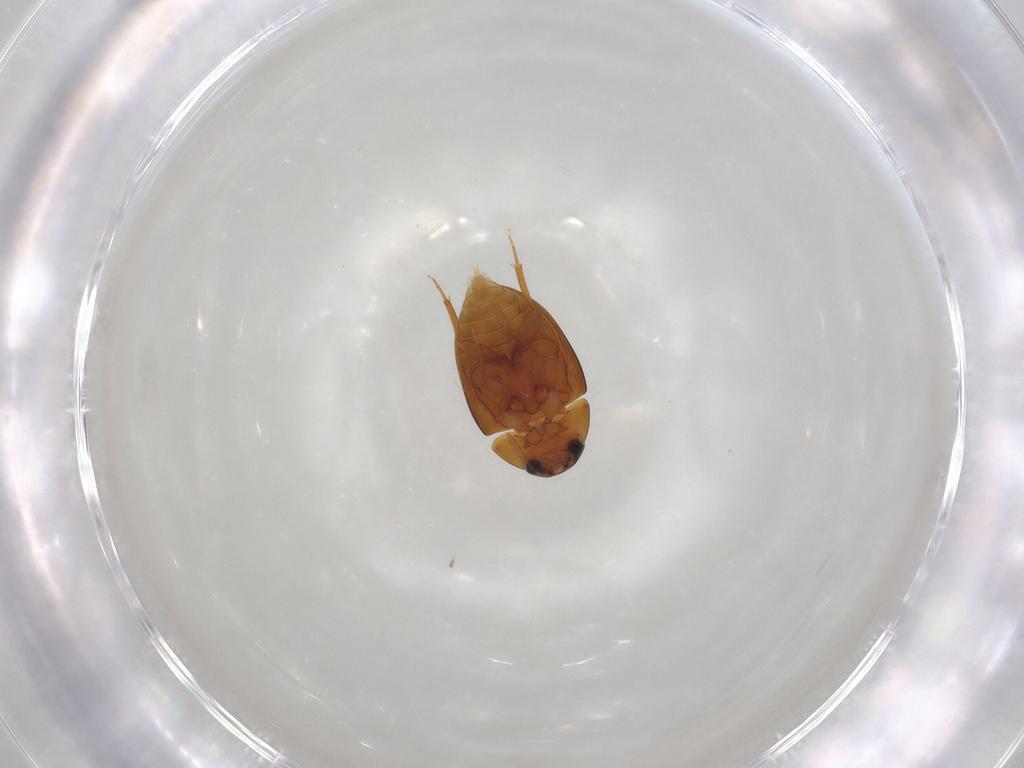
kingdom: Animalia
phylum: Arthropoda
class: Insecta
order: Coleoptera
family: Phalacridae
